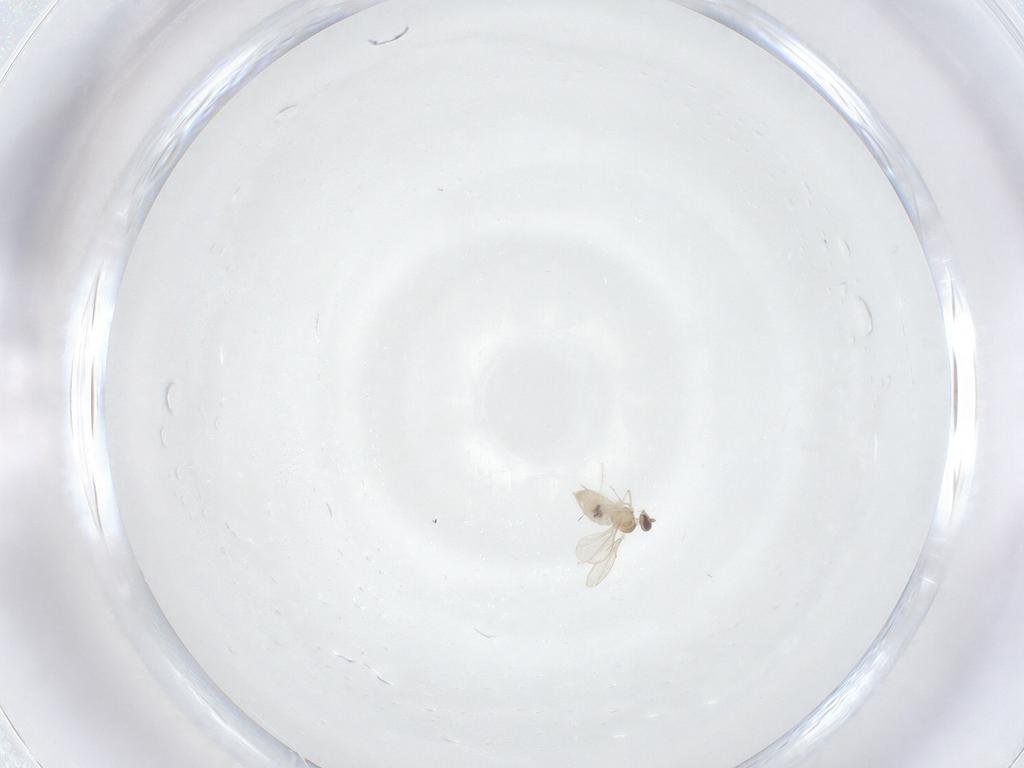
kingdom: Animalia
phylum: Arthropoda
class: Insecta
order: Diptera
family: Cecidomyiidae
